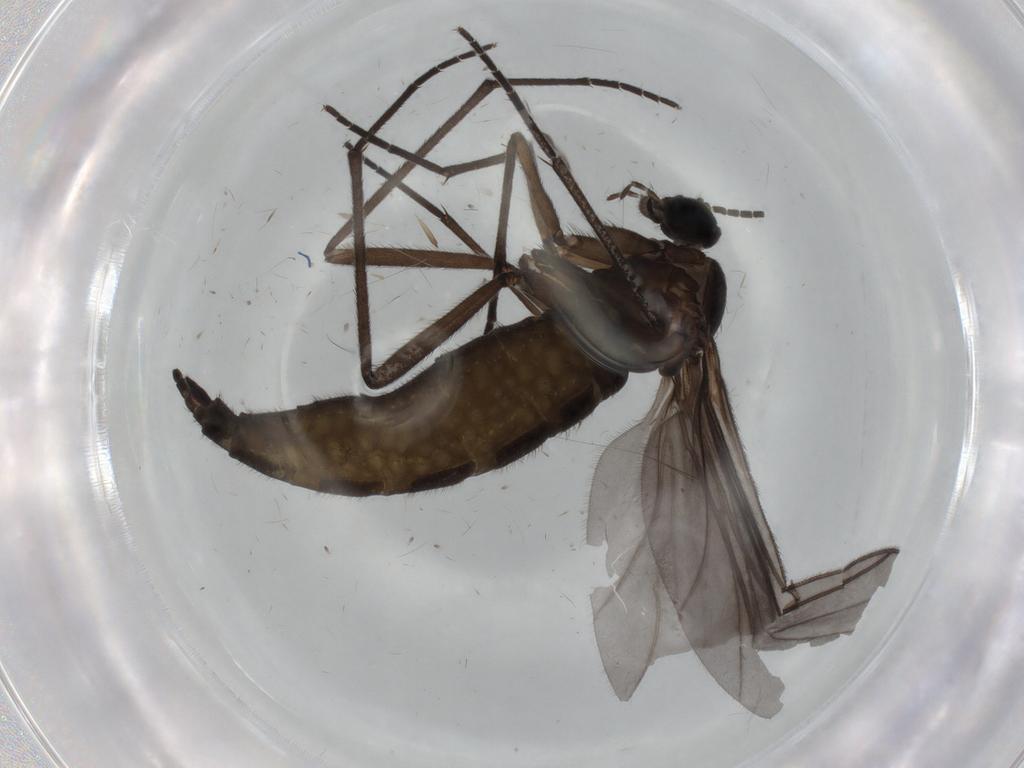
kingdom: Animalia
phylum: Arthropoda
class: Insecta
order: Diptera
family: Sciaridae
